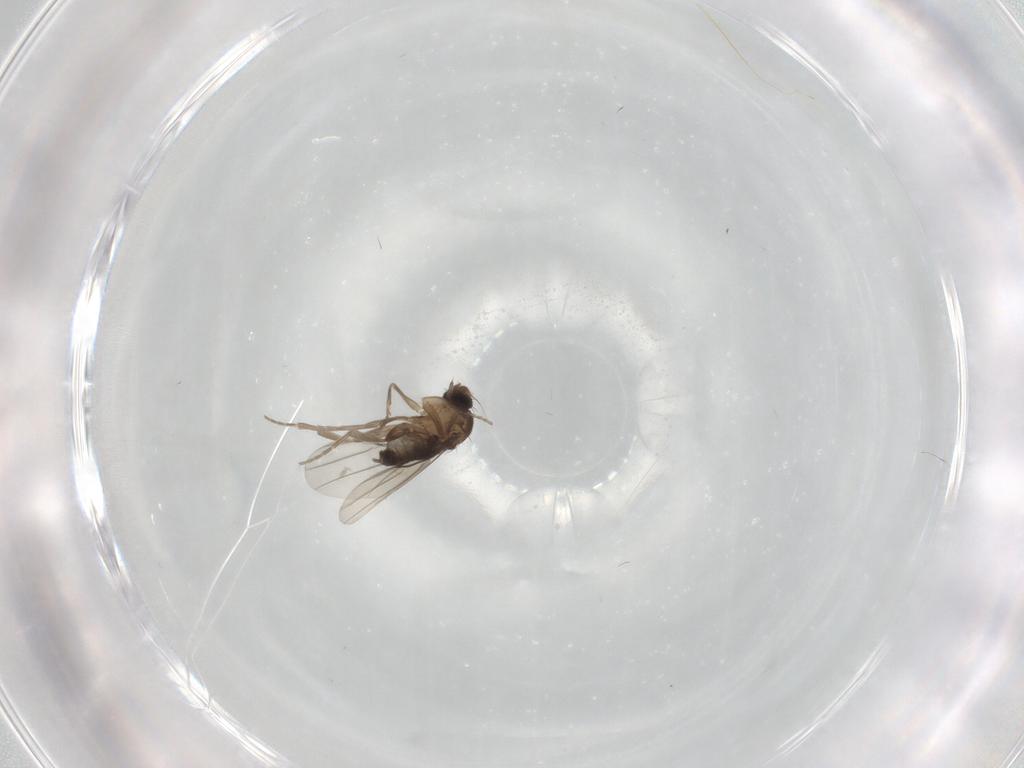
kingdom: Animalia
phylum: Arthropoda
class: Insecta
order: Diptera
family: Phoridae
